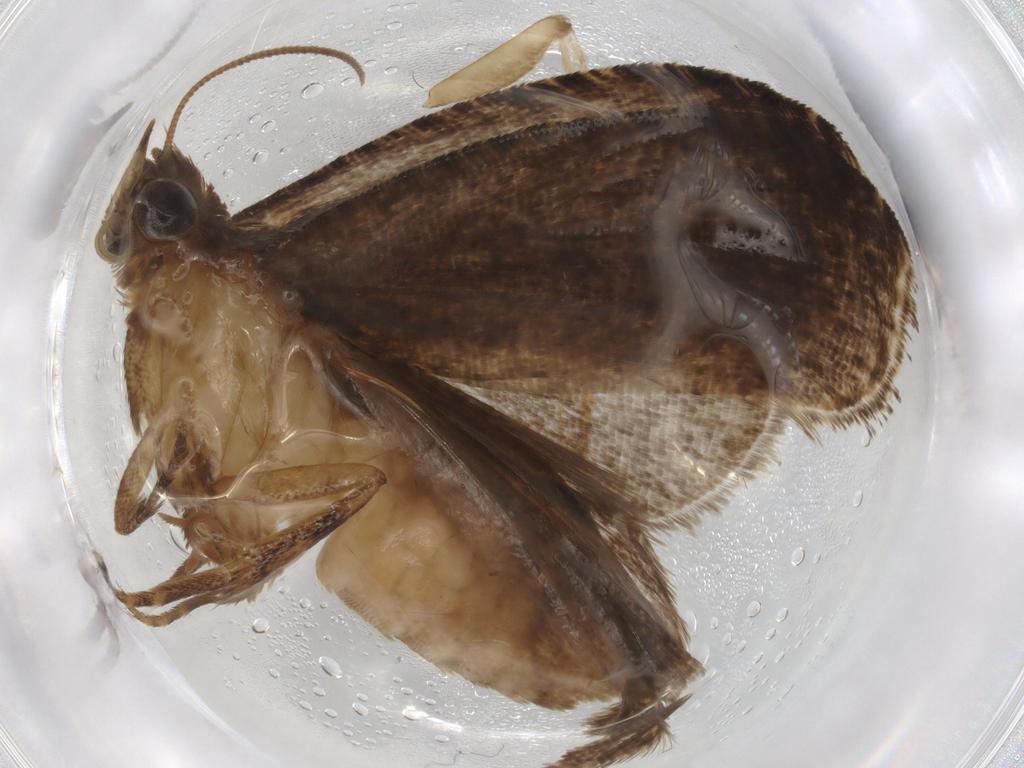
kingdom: Animalia
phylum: Arthropoda
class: Insecta
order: Lepidoptera
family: Tortricidae
